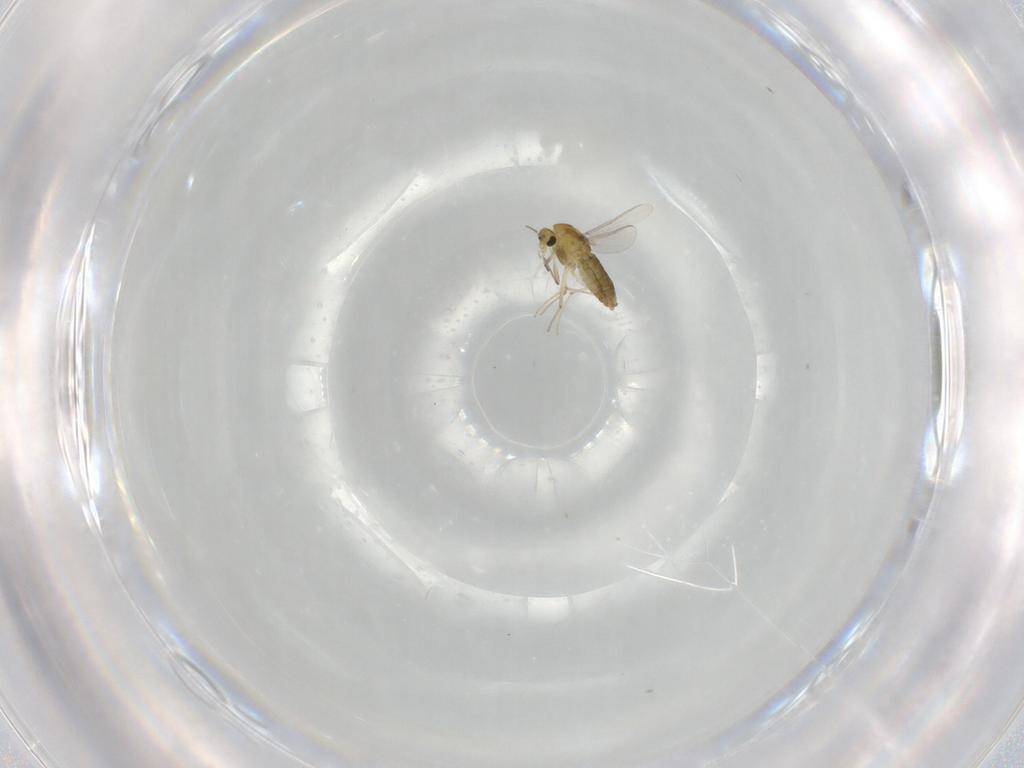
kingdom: Animalia
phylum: Arthropoda
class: Insecta
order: Diptera
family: Chironomidae
